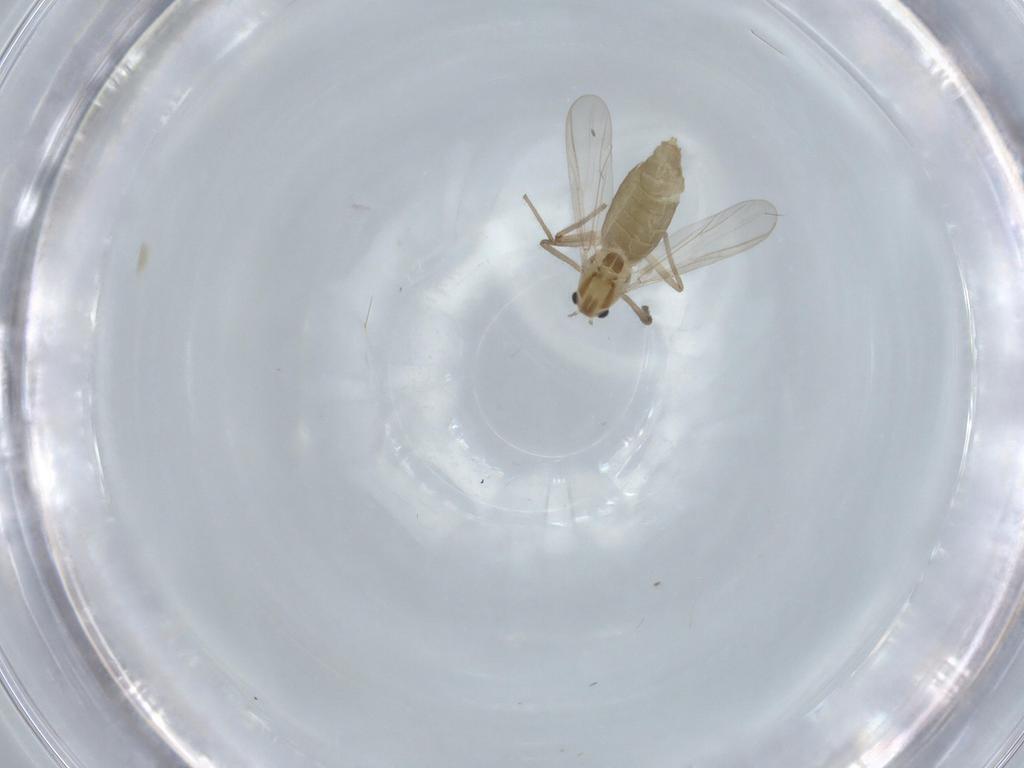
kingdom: Animalia
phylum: Arthropoda
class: Insecta
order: Diptera
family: Chironomidae
